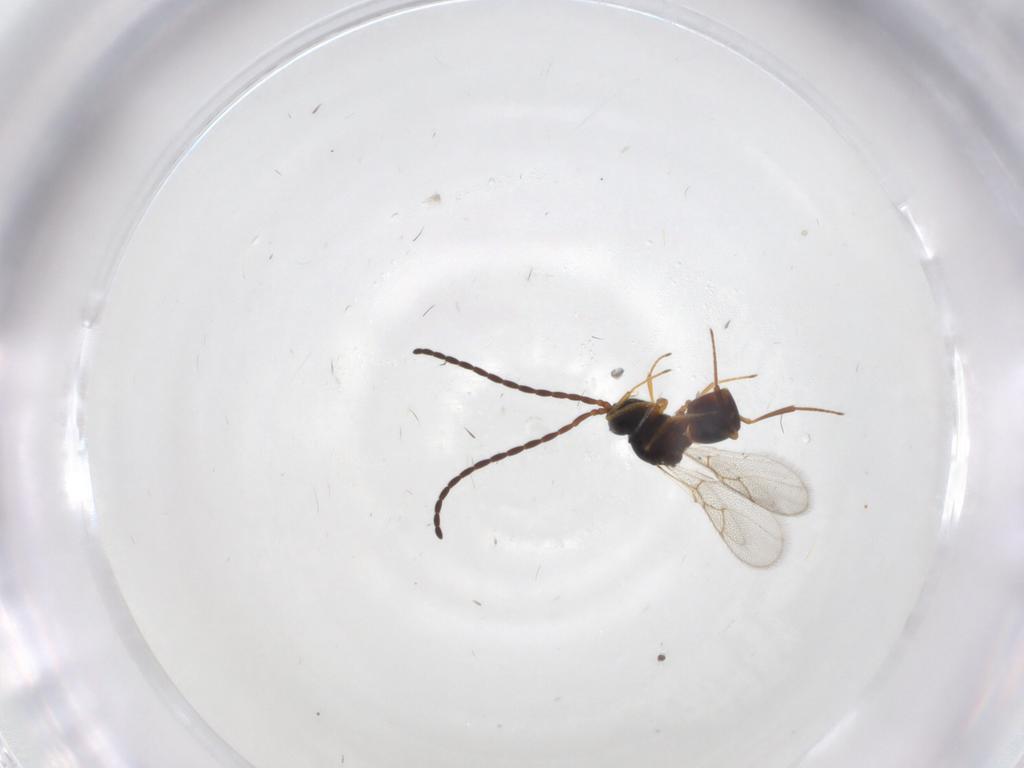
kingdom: Animalia
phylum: Arthropoda
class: Insecta
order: Hymenoptera
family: Figitidae
